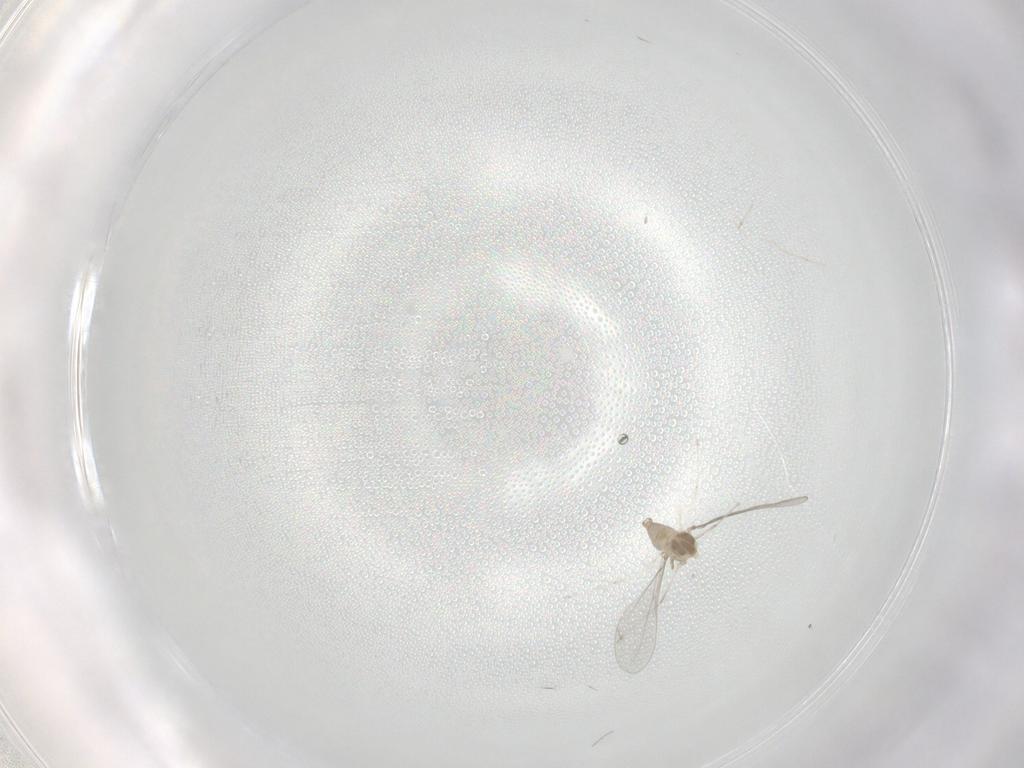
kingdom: Animalia
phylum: Arthropoda
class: Insecta
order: Diptera
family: Cecidomyiidae
